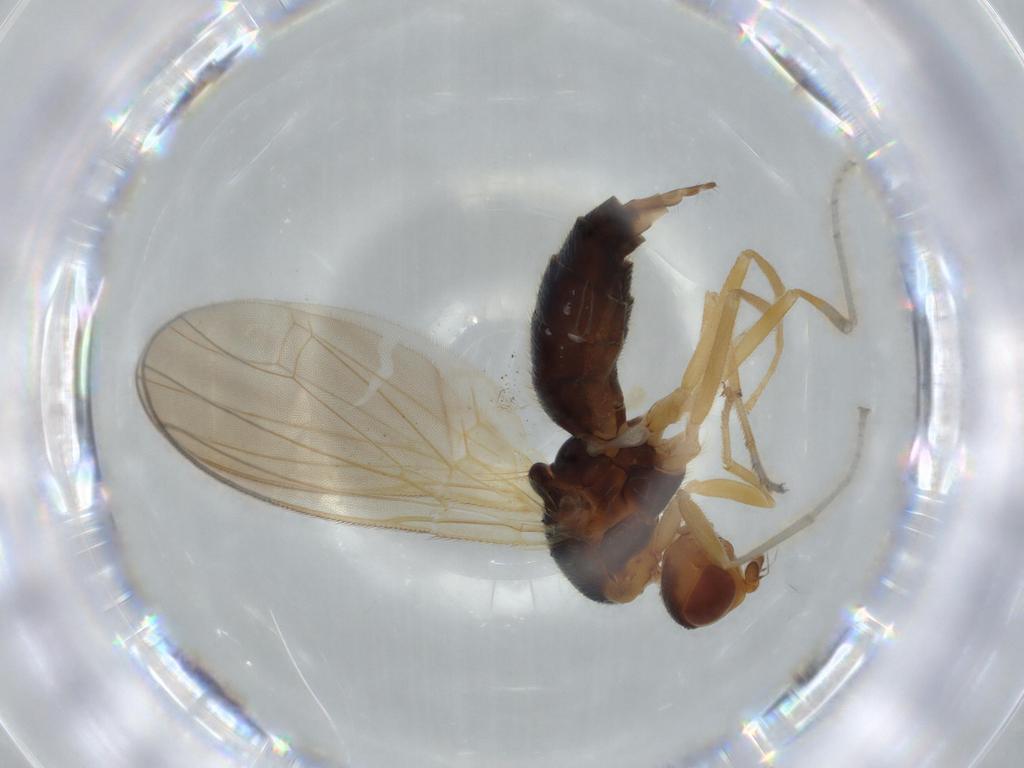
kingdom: Animalia
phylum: Arthropoda
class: Insecta
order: Diptera
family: Psilidae
